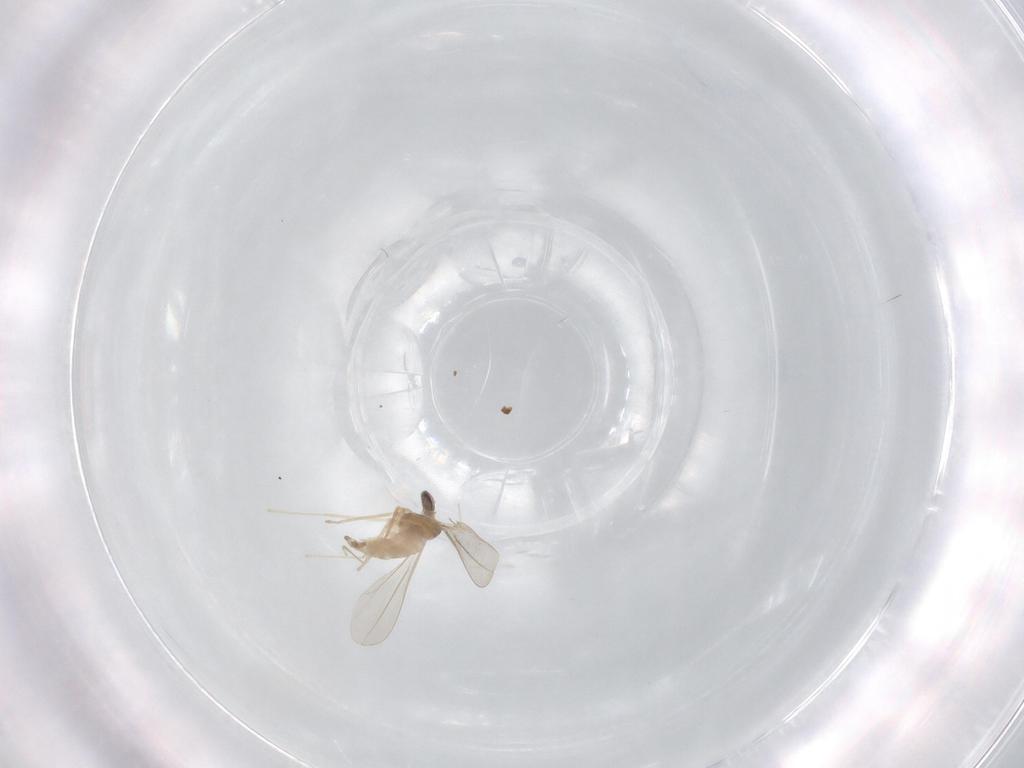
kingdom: Animalia
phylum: Arthropoda
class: Insecta
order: Diptera
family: Cecidomyiidae
